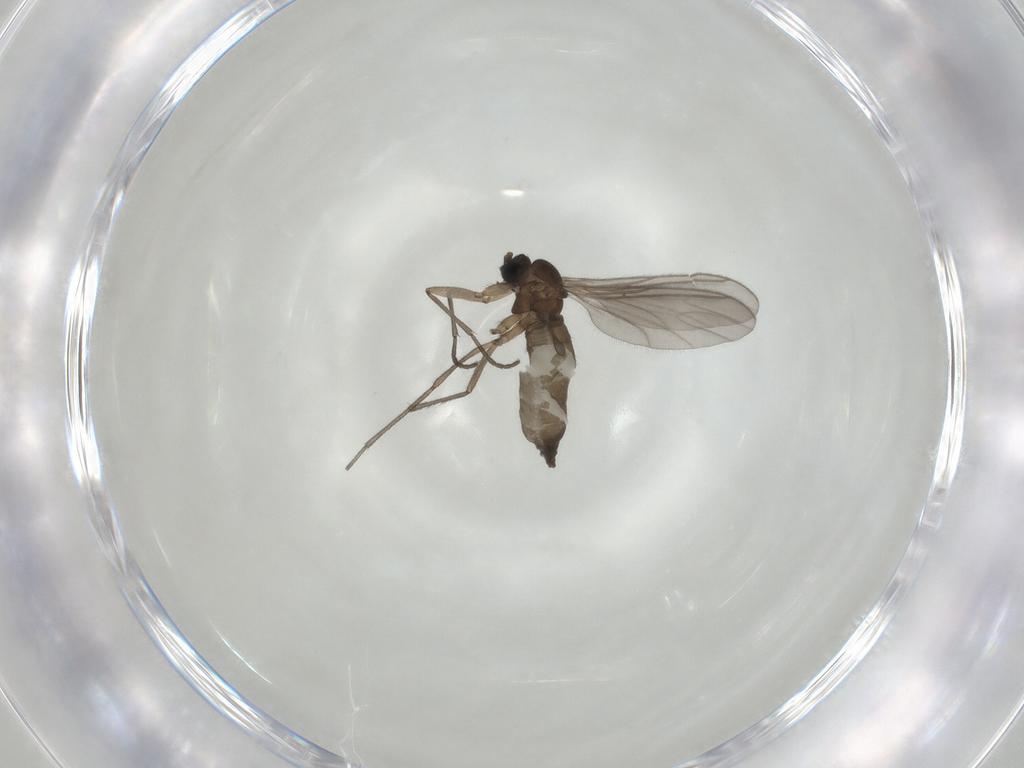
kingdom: Animalia
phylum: Arthropoda
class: Insecta
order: Diptera
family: Sciaridae
